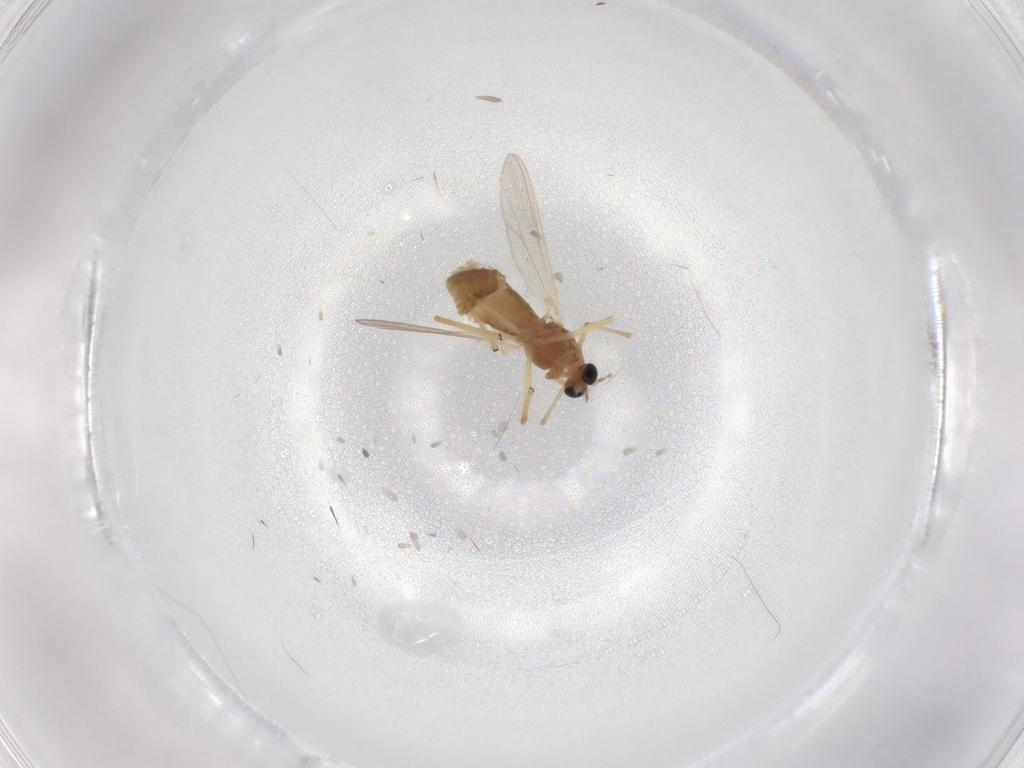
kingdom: Animalia
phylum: Arthropoda
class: Insecta
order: Diptera
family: Chironomidae
